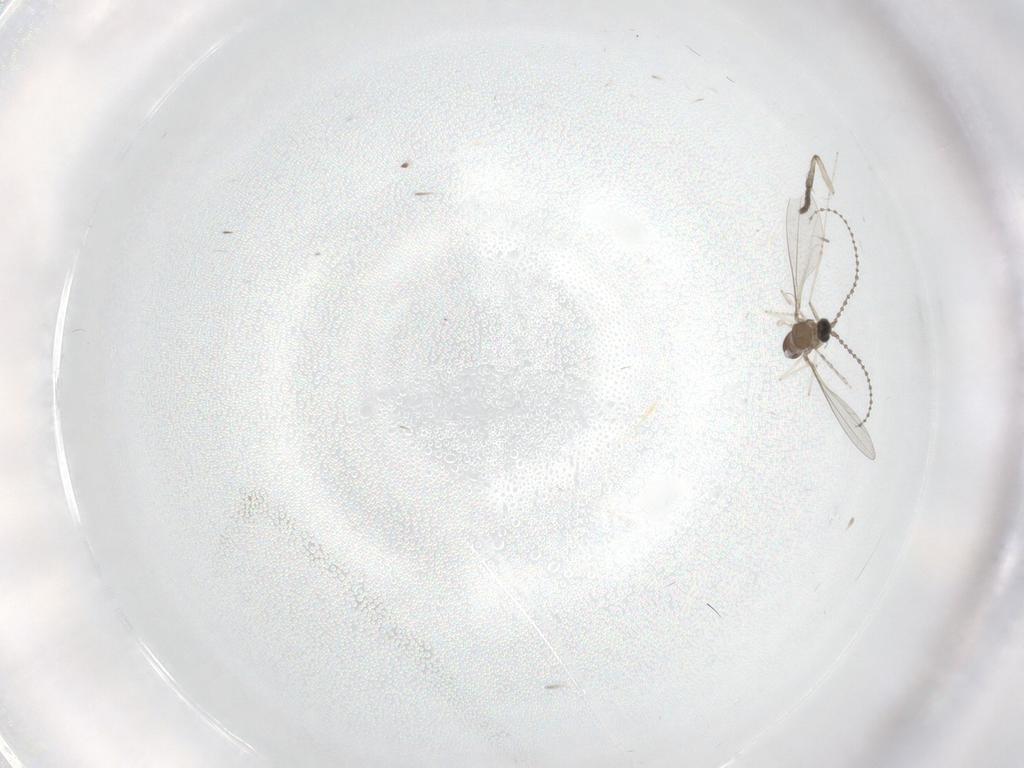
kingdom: Animalia
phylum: Arthropoda
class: Insecta
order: Diptera
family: Cecidomyiidae
